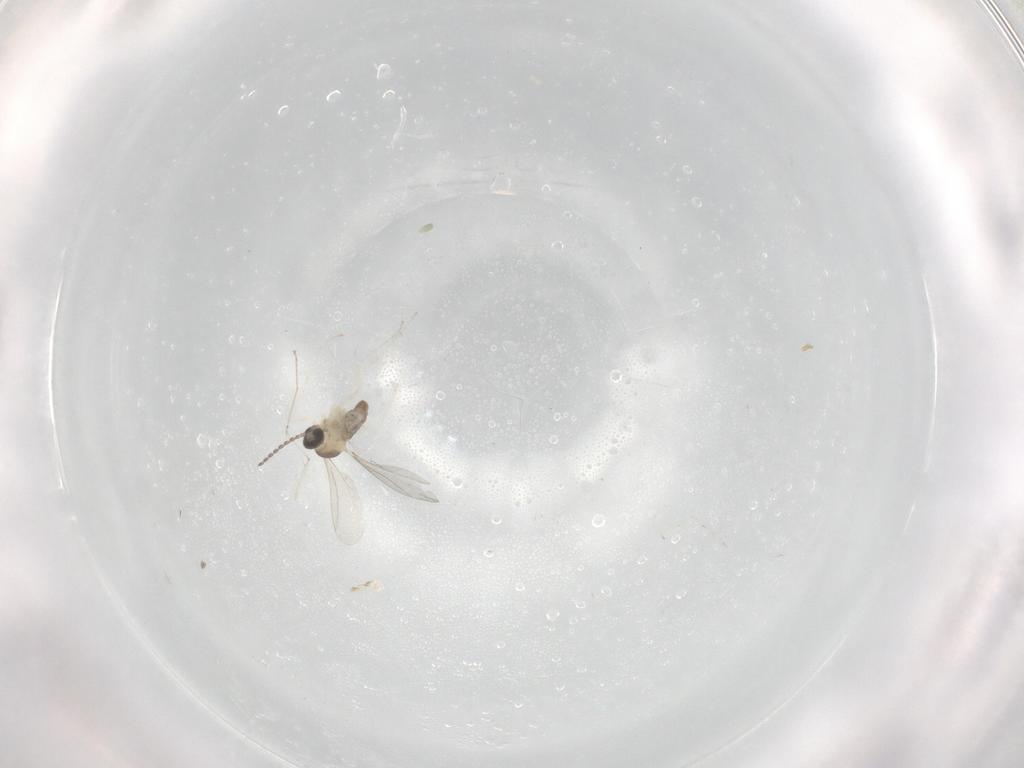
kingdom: Animalia
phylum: Arthropoda
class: Insecta
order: Diptera
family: Cecidomyiidae
